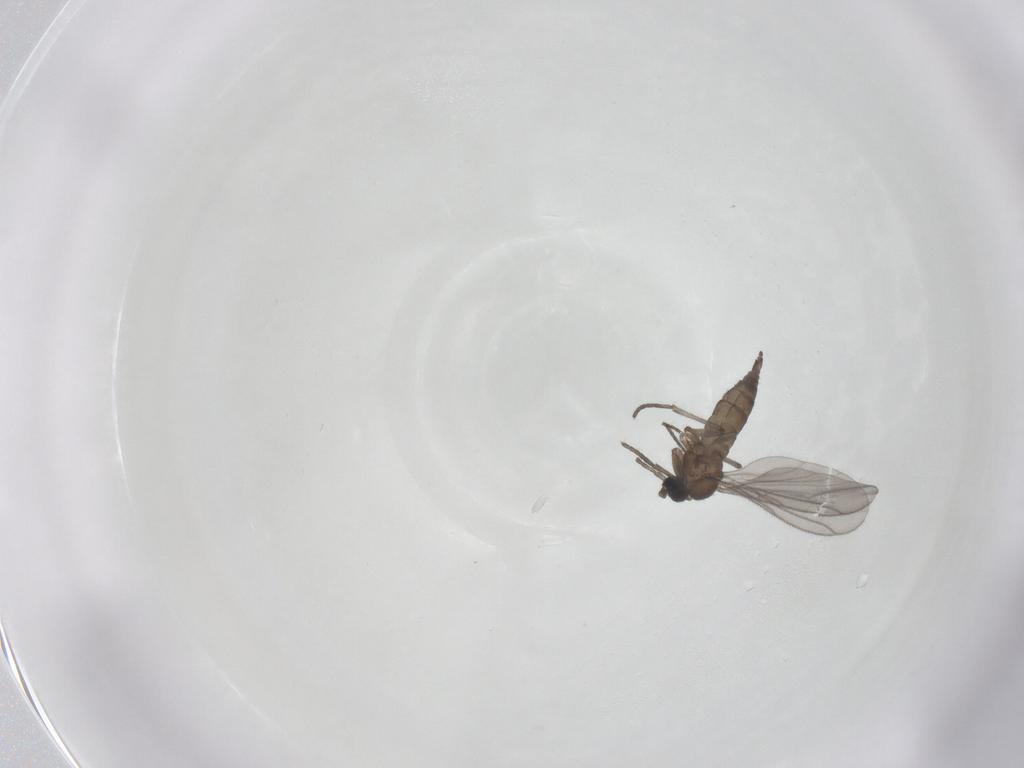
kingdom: Animalia
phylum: Arthropoda
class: Insecta
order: Diptera
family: Sciaridae
